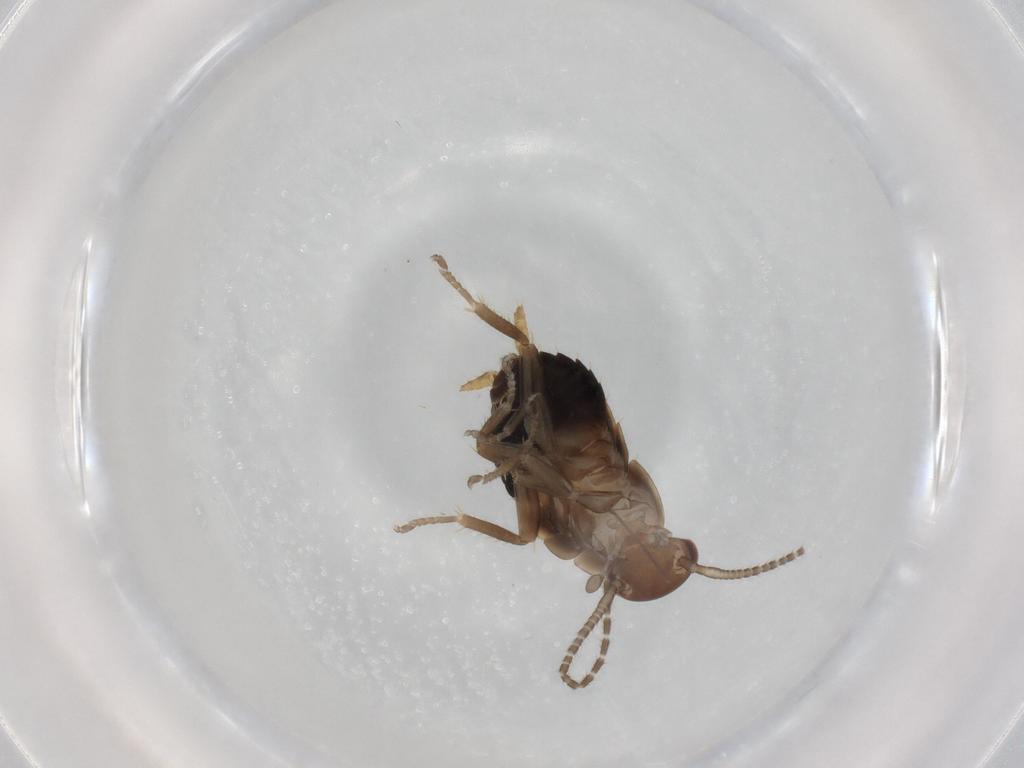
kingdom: Animalia
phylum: Arthropoda
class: Insecta
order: Blattodea
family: Ectobiidae
